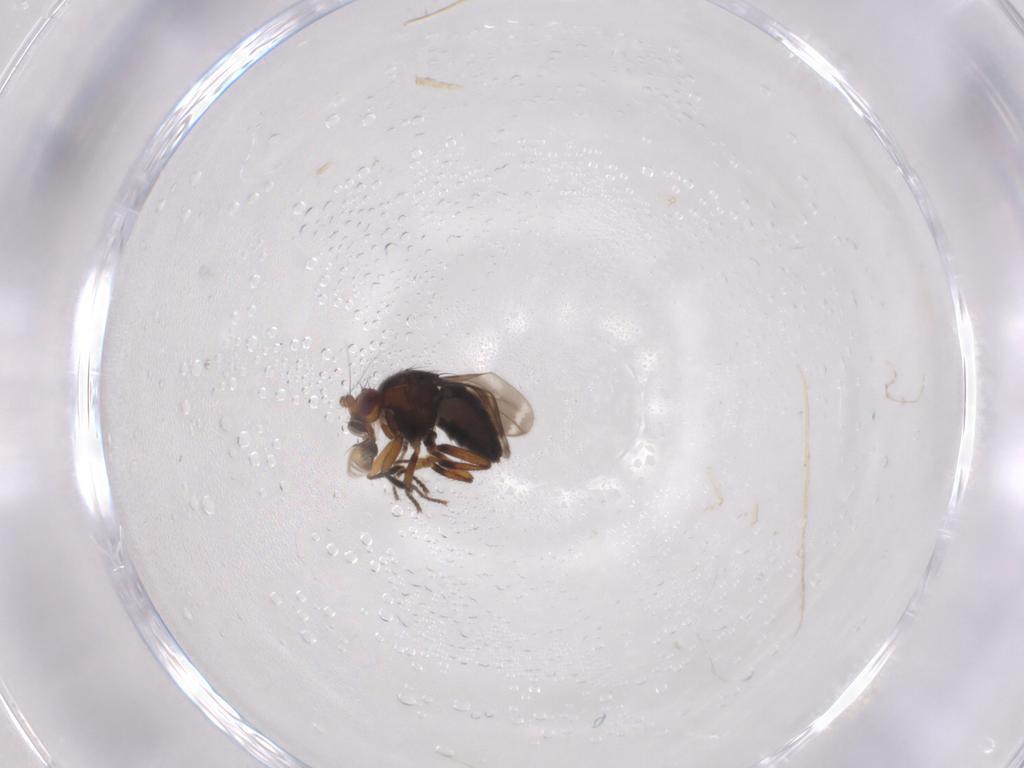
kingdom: Animalia
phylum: Arthropoda
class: Insecta
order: Diptera
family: Sphaeroceridae
